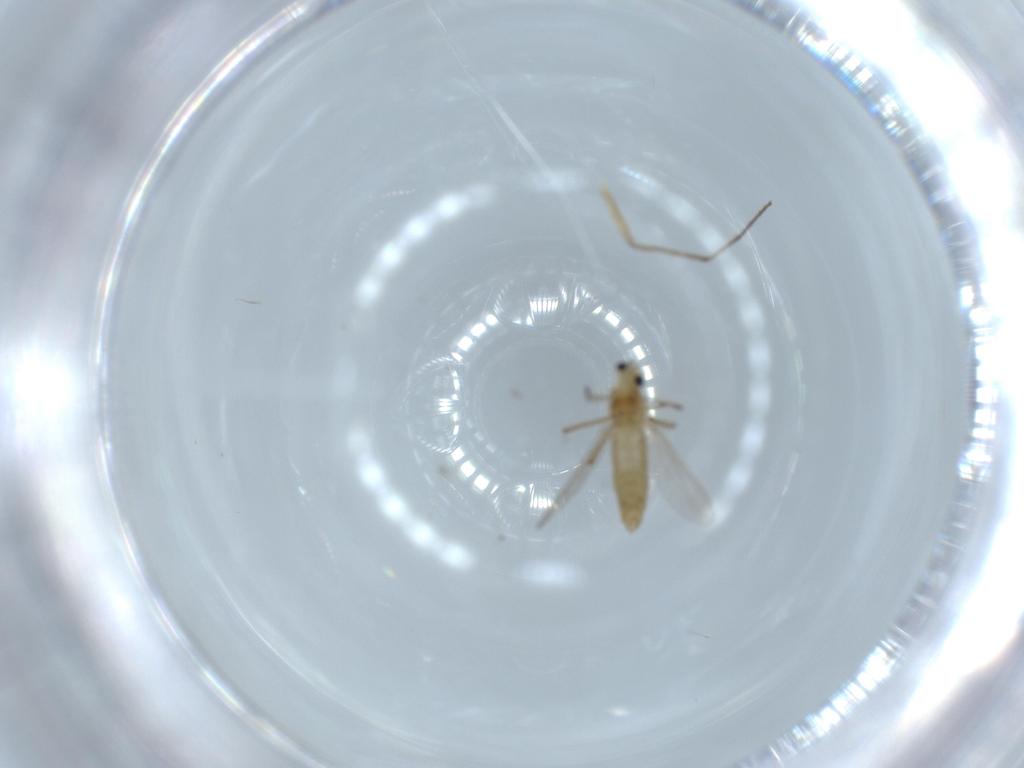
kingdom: Animalia
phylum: Arthropoda
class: Insecta
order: Diptera
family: Chironomidae
